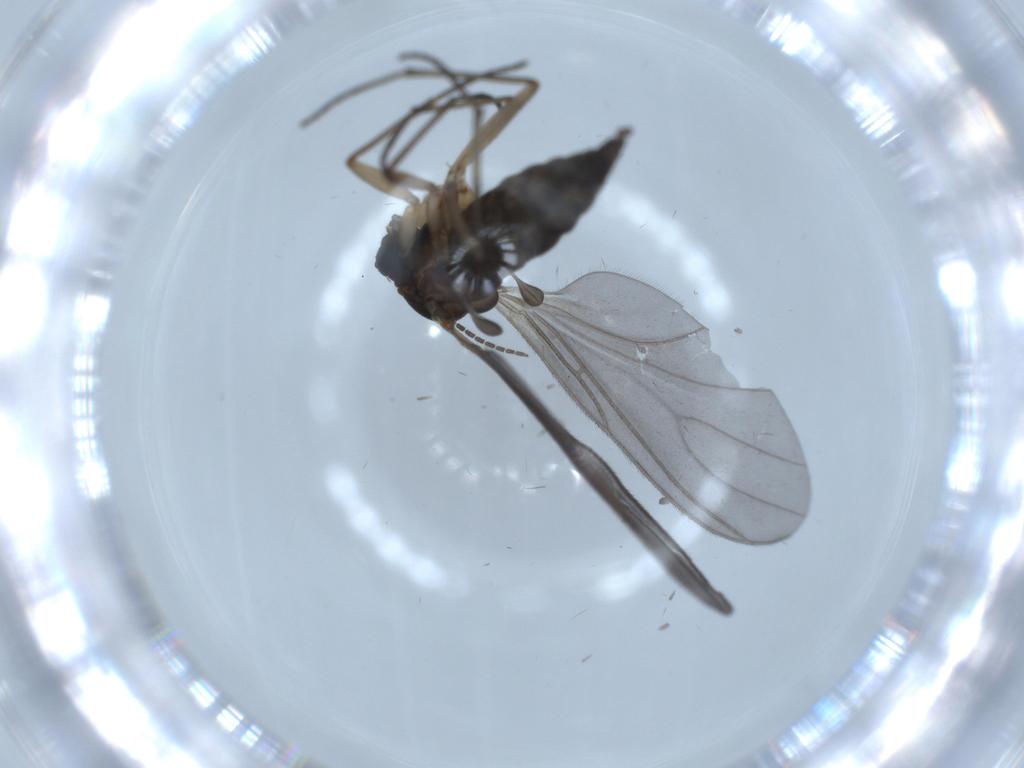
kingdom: Animalia
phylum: Arthropoda
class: Insecta
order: Diptera
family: Sciaridae
